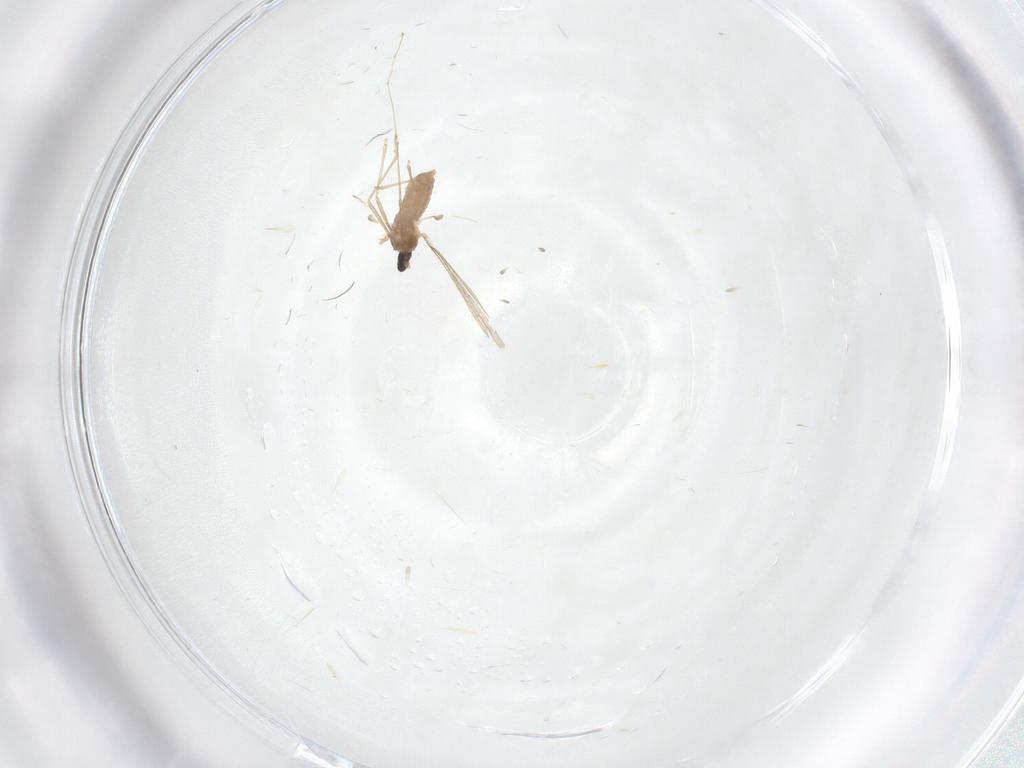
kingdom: Animalia
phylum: Arthropoda
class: Insecta
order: Diptera
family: Cecidomyiidae
